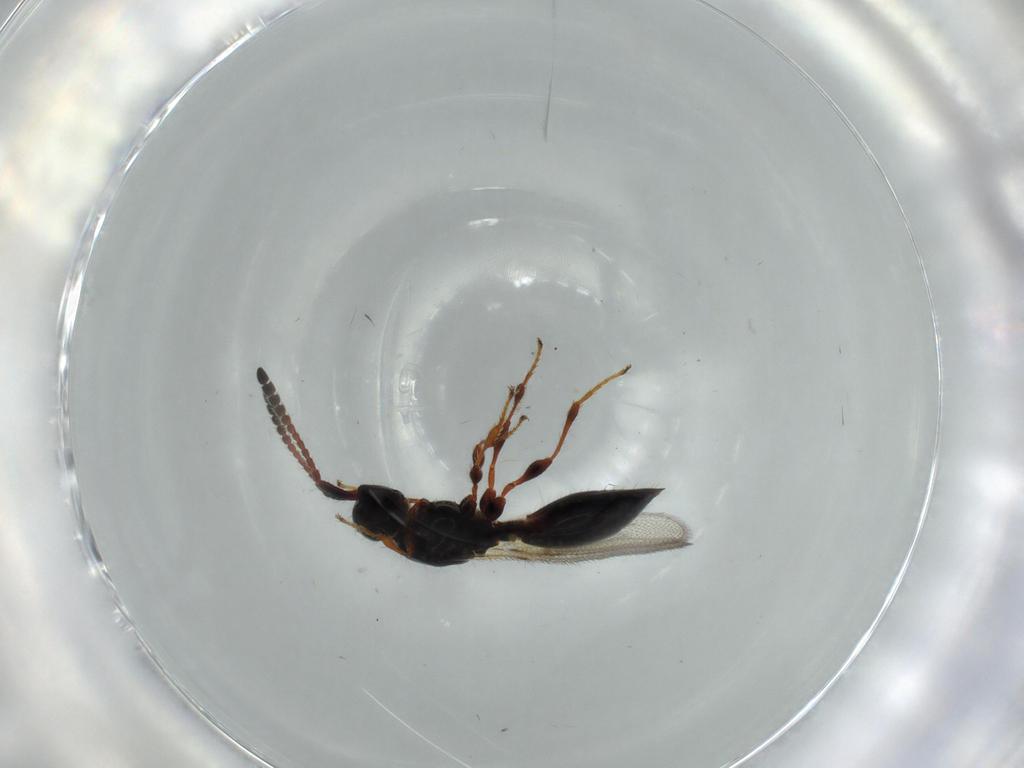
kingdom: Animalia
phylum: Arthropoda
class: Insecta
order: Hymenoptera
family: Diapriidae
